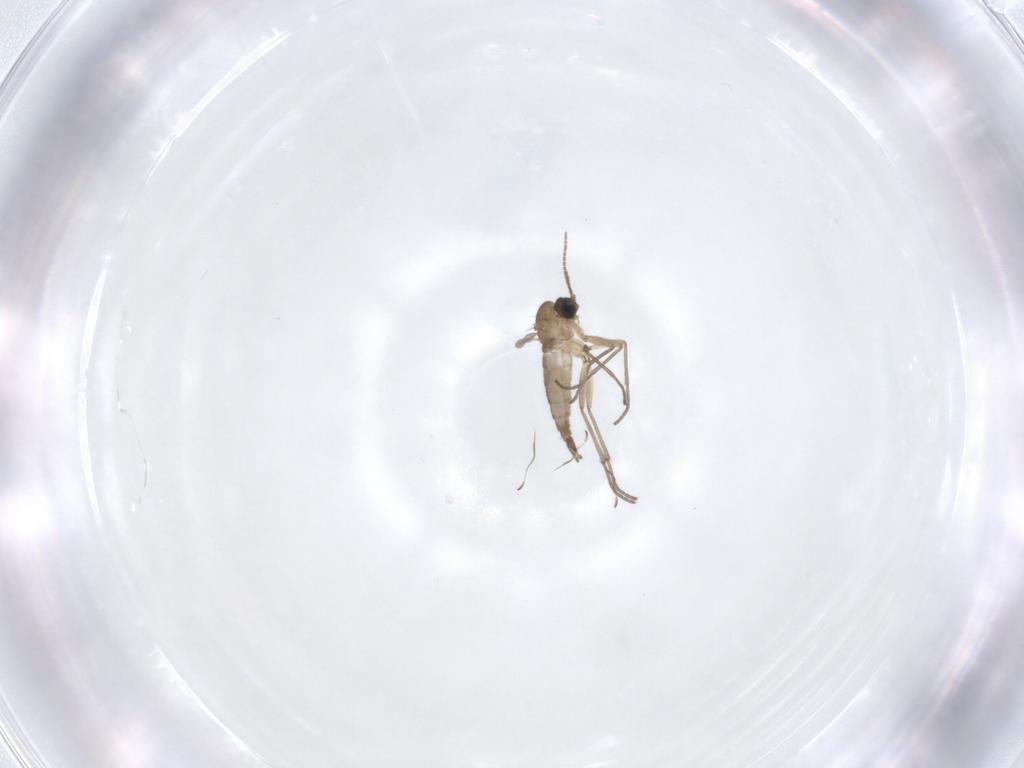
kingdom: Animalia
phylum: Arthropoda
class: Insecta
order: Diptera
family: Sciaridae
